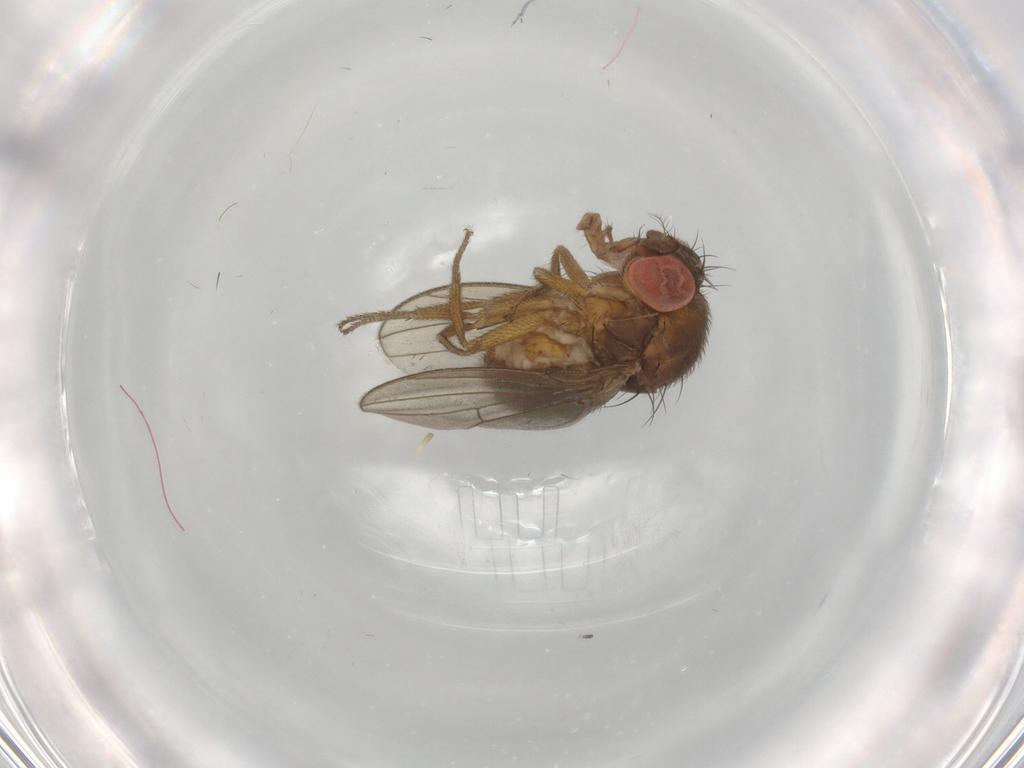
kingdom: Animalia
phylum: Arthropoda
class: Insecta
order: Diptera
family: Drosophilidae
